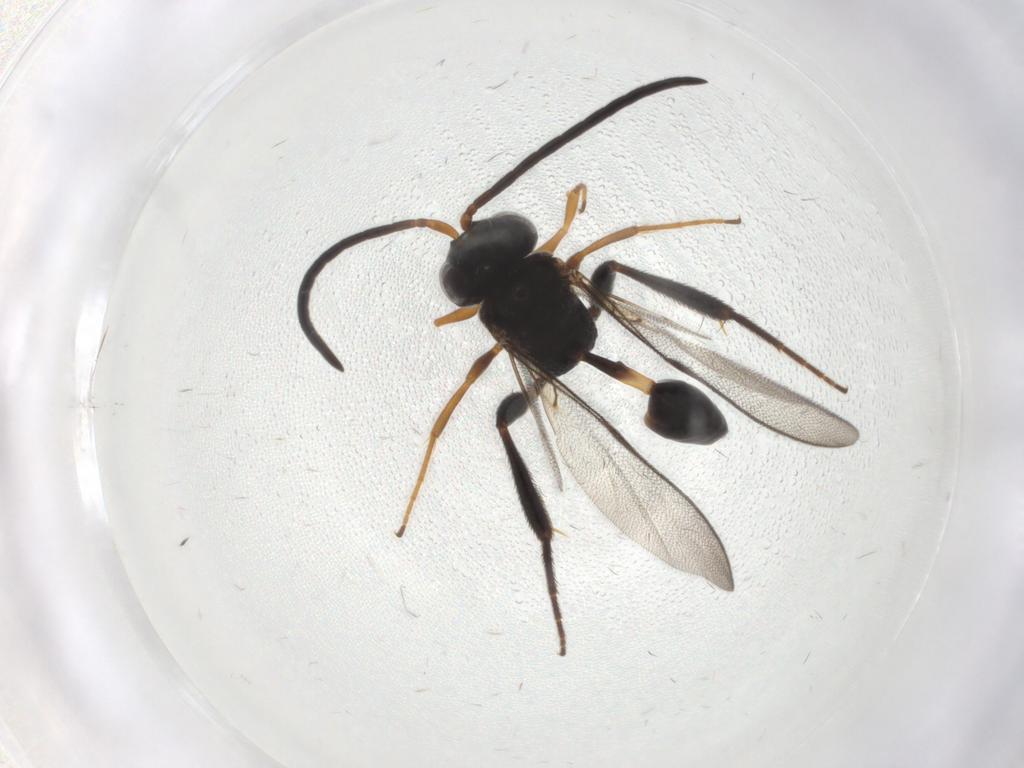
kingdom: Animalia
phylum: Arthropoda
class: Insecta
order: Hymenoptera
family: Evaniidae
